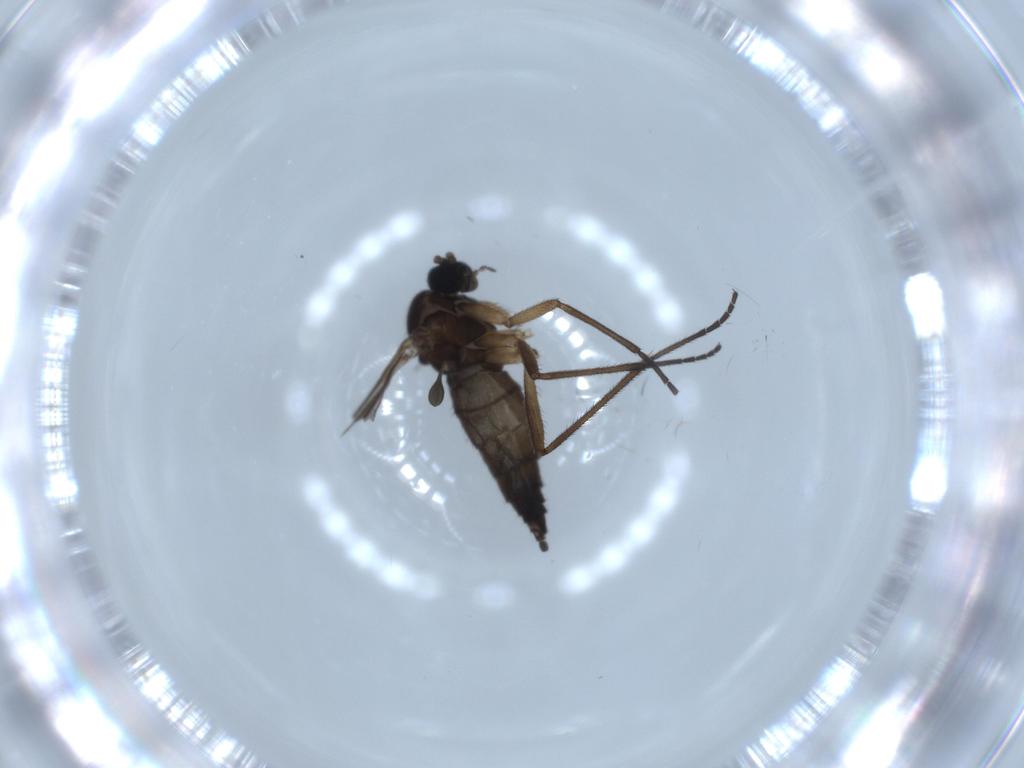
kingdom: Animalia
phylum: Arthropoda
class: Insecta
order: Diptera
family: Sciaridae
